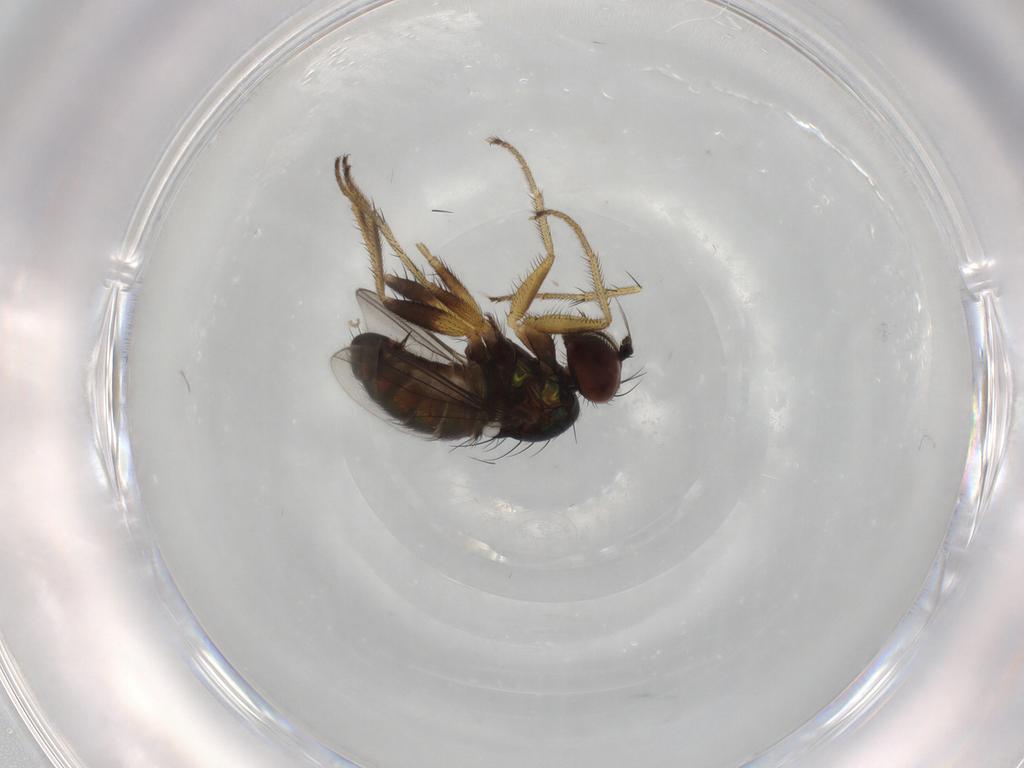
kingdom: Animalia
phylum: Arthropoda
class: Insecta
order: Diptera
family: Dolichopodidae
